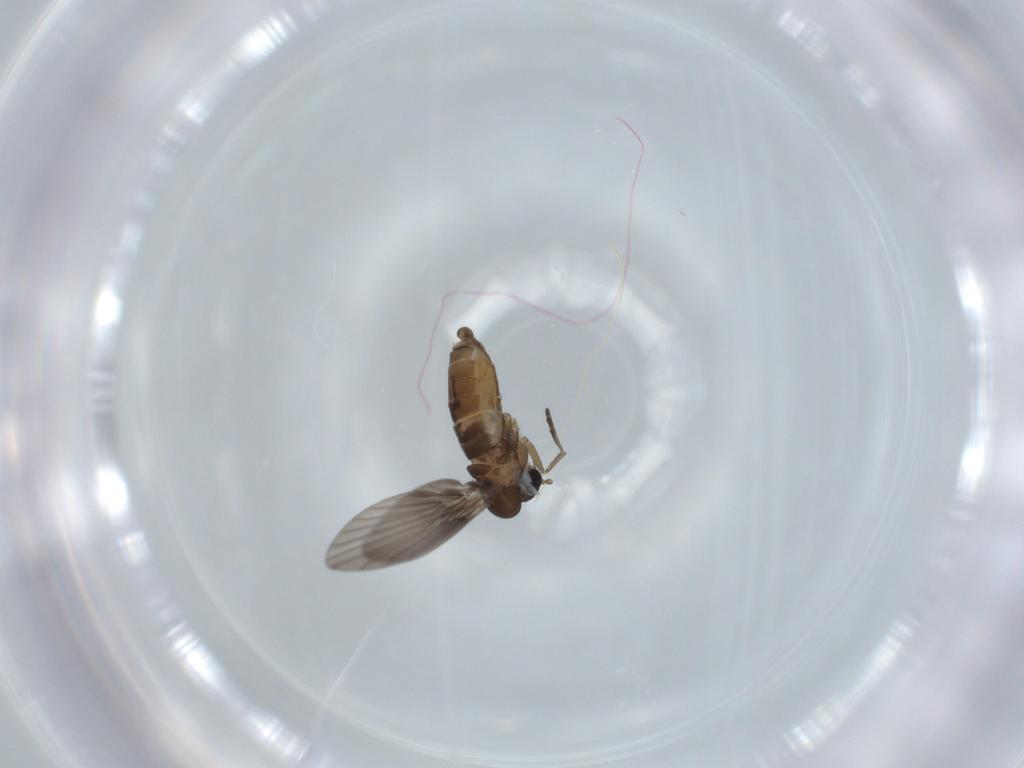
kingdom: Animalia
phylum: Arthropoda
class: Insecta
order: Diptera
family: Psychodidae
